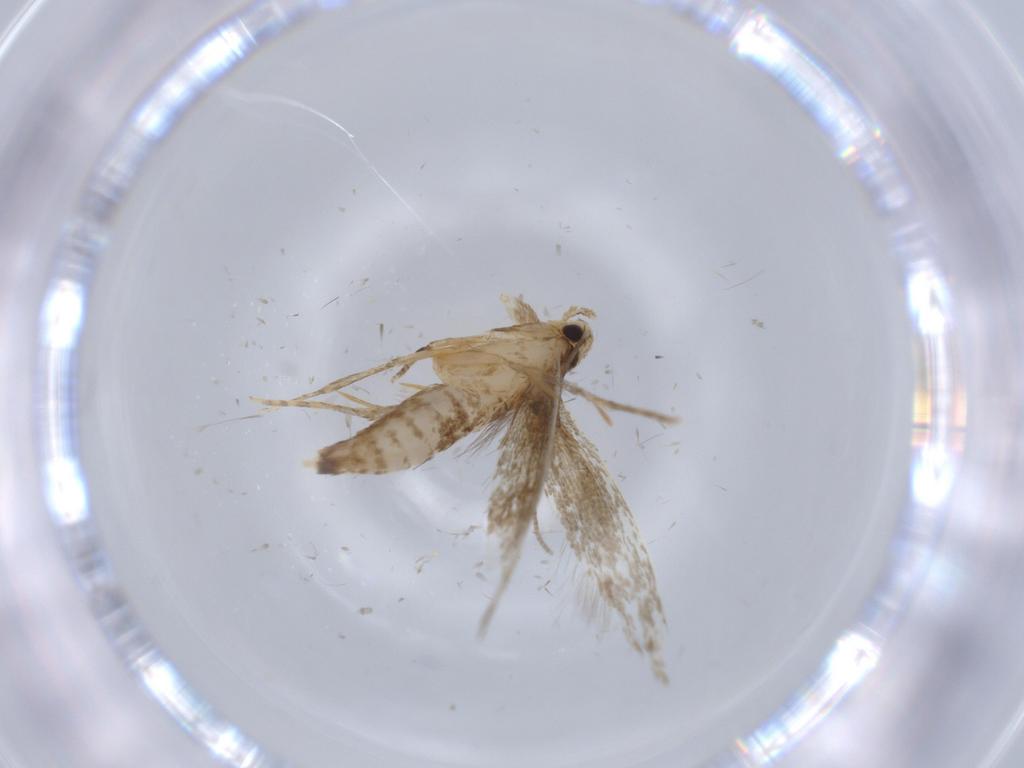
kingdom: Animalia
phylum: Arthropoda
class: Insecta
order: Lepidoptera
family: Tineidae
